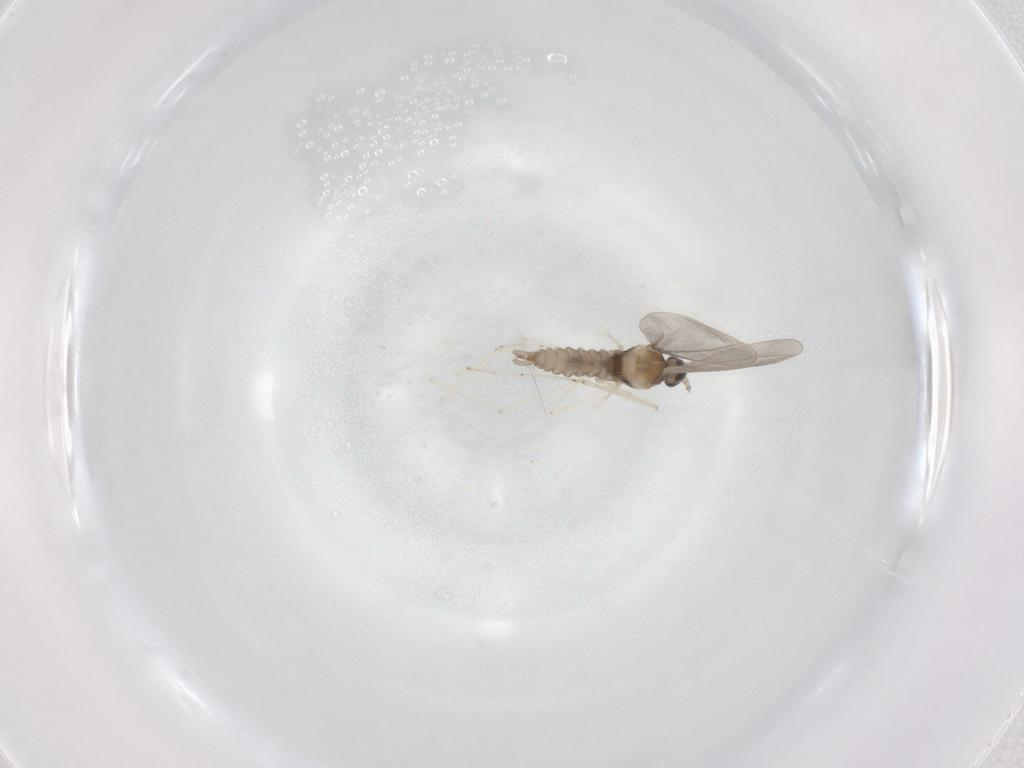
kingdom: Animalia
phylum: Arthropoda
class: Insecta
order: Diptera
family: Cecidomyiidae
